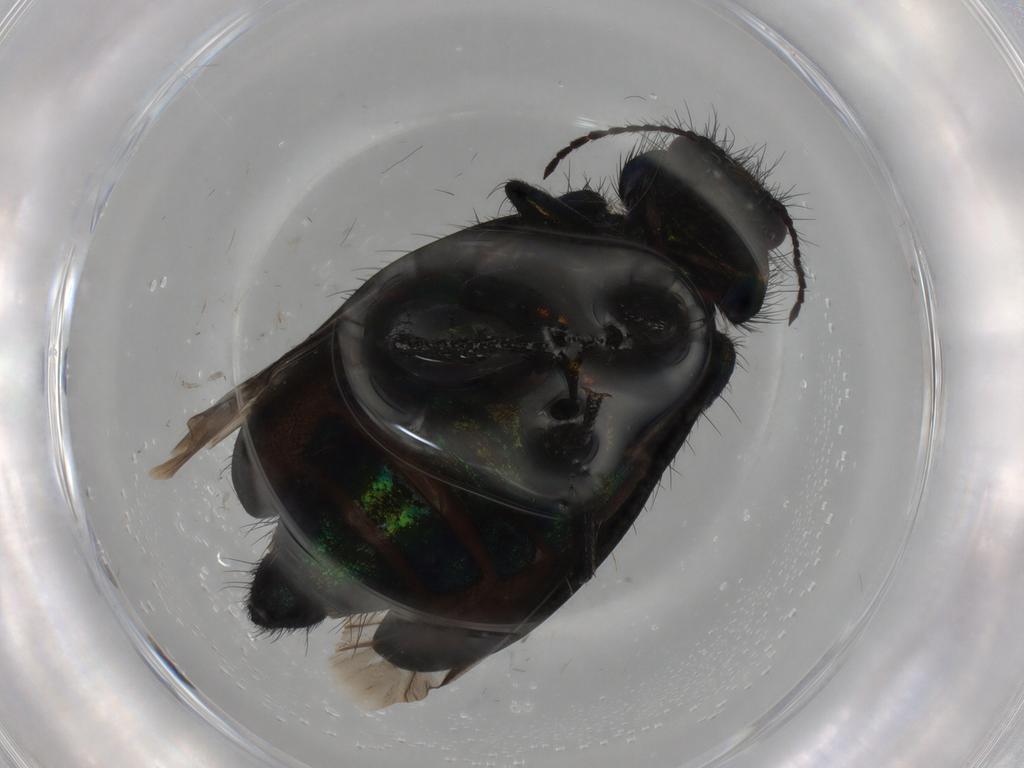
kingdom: Animalia
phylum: Arthropoda
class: Insecta
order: Coleoptera
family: Melyridae
